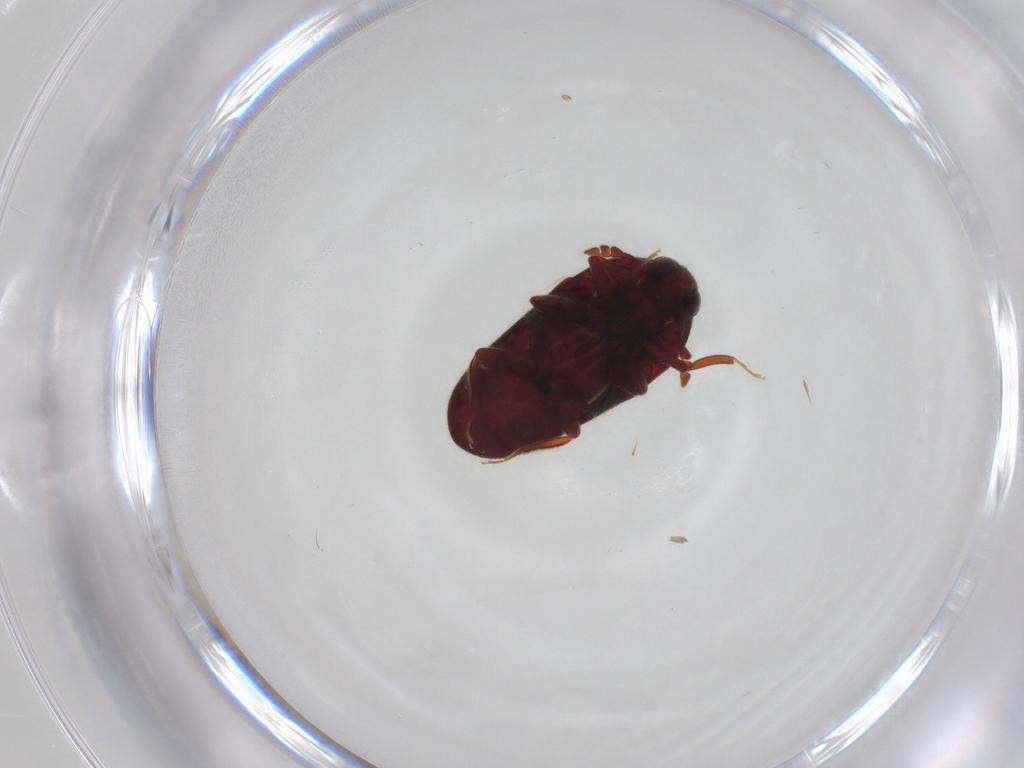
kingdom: Animalia
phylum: Arthropoda
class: Insecta
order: Coleoptera
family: Throscidae
